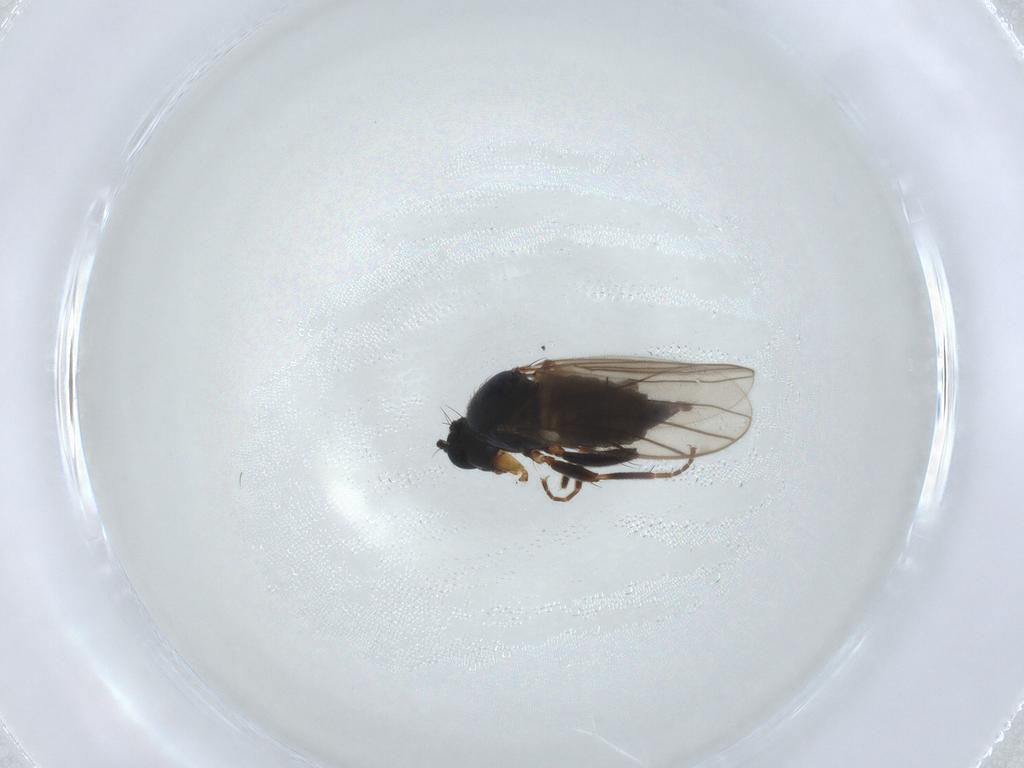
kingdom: Animalia
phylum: Arthropoda
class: Insecta
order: Diptera
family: Hybotidae
